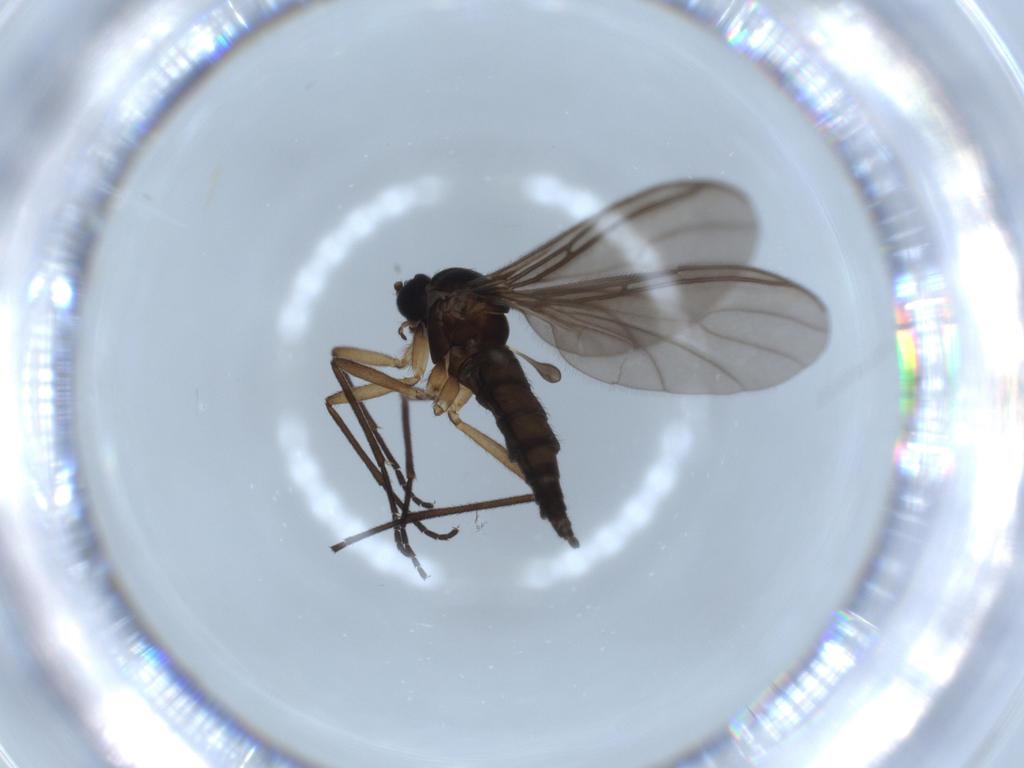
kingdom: Animalia
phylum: Arthropoda
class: Insecta
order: Diptera
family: Sciaridae
